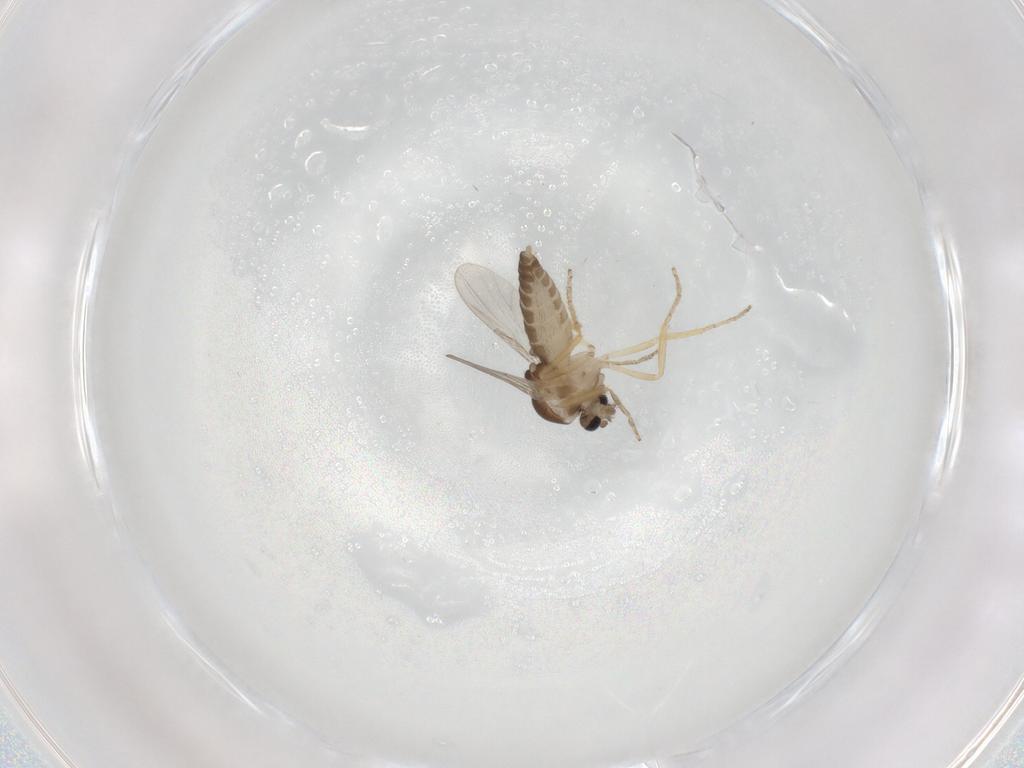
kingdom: Animalia
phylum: Arthropoda
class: Insecta
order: Diptera
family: Ceratopogonidae
